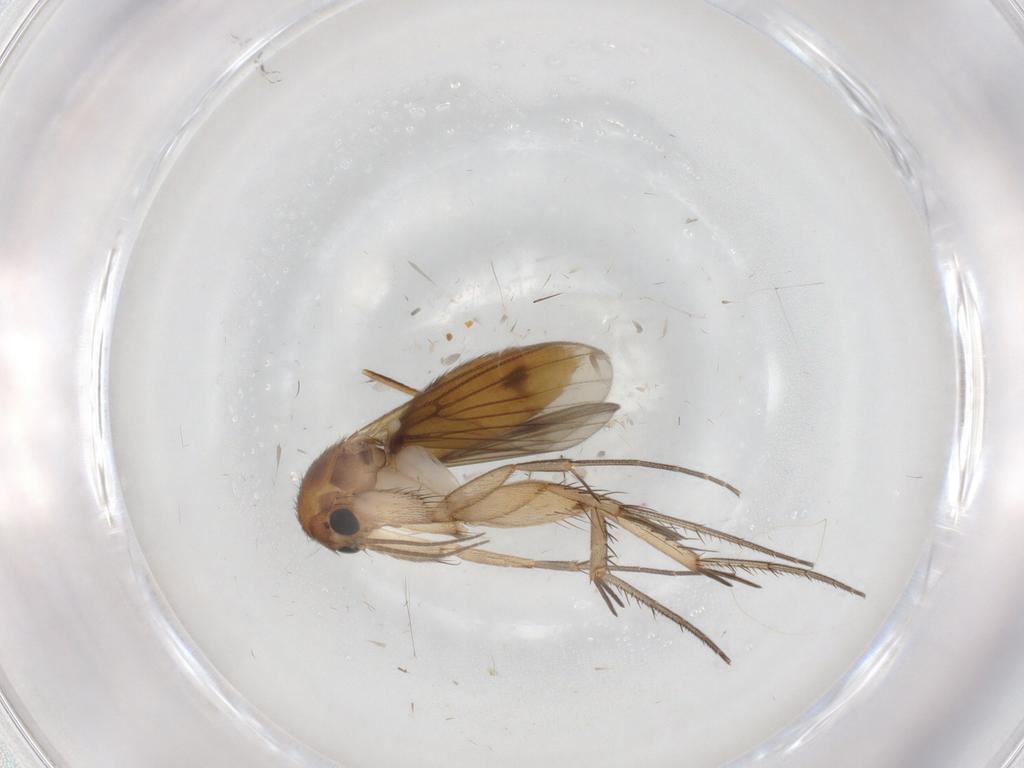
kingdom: Animalia
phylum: Arthropoda
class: Insecta
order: Diptera
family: Mycetophilidae
